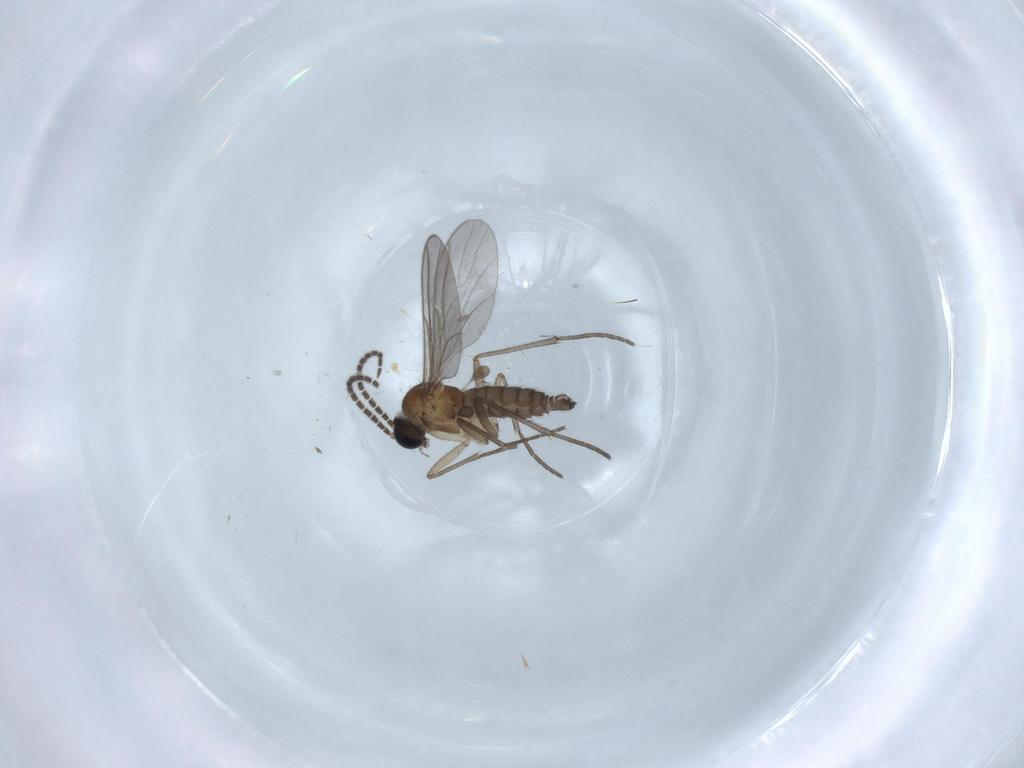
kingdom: Animalia
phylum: Arthropoda
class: Insecta
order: Diptera
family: Sciaridae
